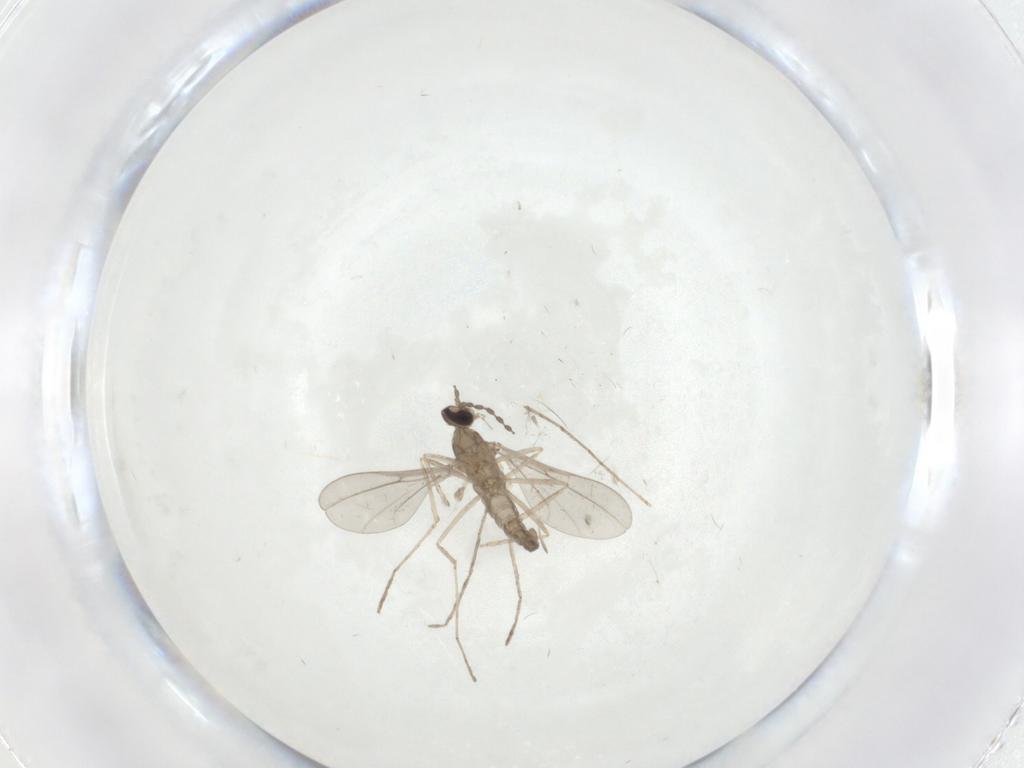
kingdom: Animalia
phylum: Arthropoda
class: Insecta
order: Diptera
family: Cecidomyiidae
